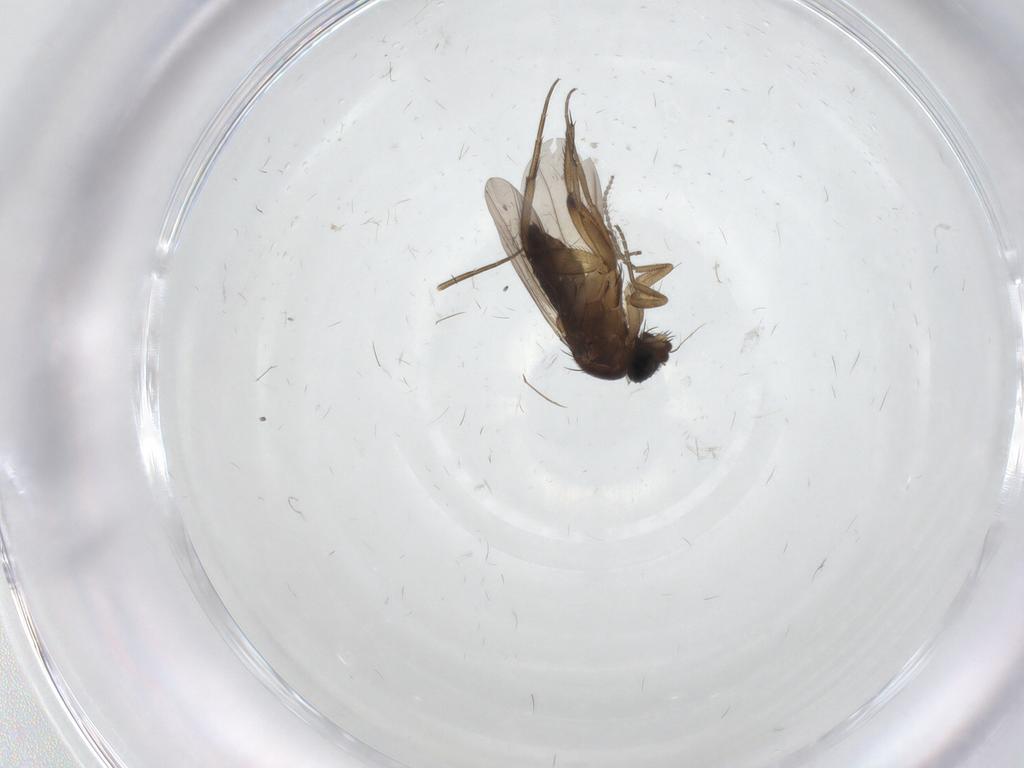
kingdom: Animalia
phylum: Arthropoda
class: Insecta
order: Diptera
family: Phoridae
